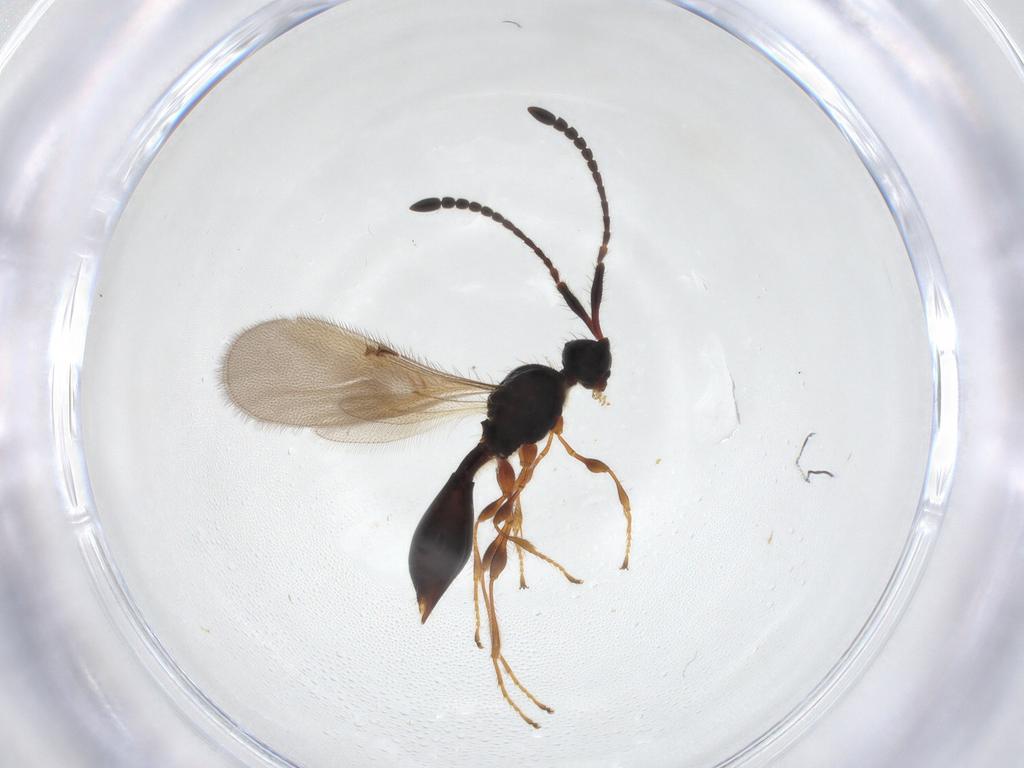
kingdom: Animalia
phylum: Arthropoda
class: Insecta
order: Hymenoptera
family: Diapriidae
